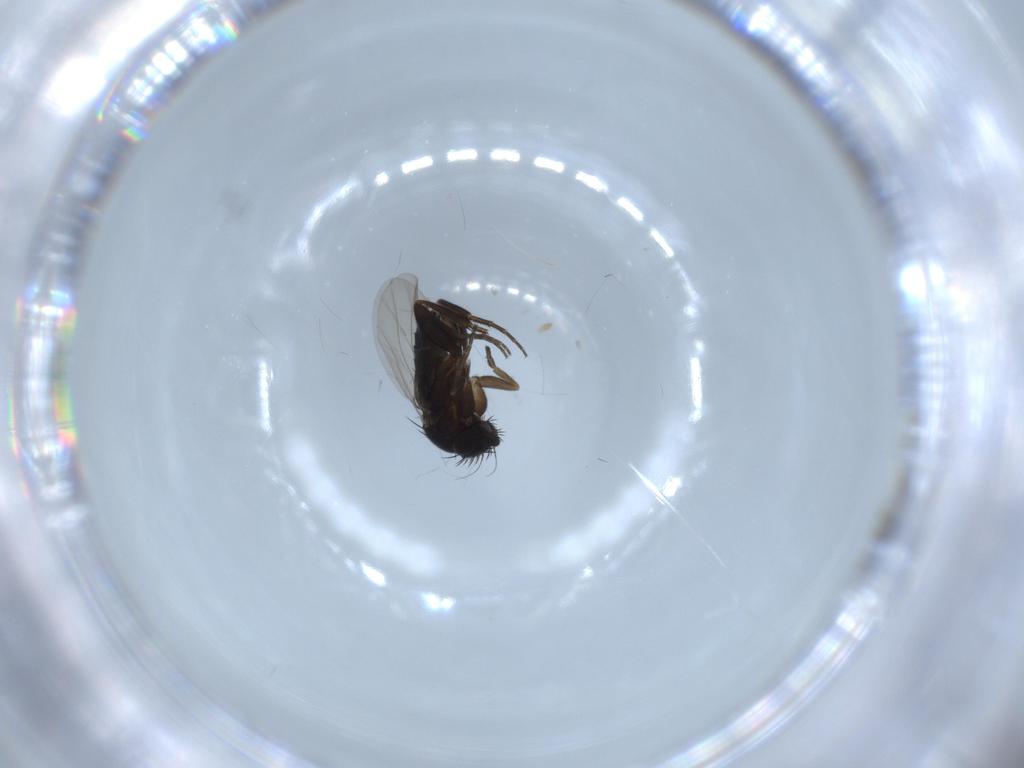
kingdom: Animalia
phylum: Arthropoda
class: Insecta
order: Diptera
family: Phoridae
